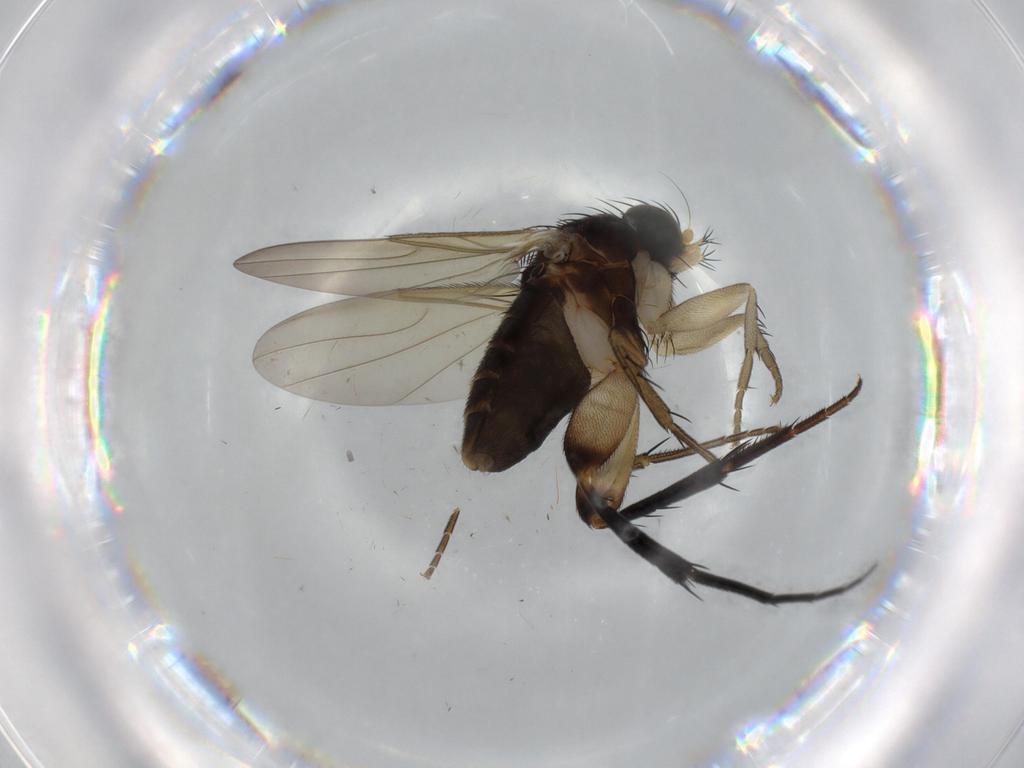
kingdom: Animalia
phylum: Arthropoda
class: Insecta
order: Diptera
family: Phoridae
